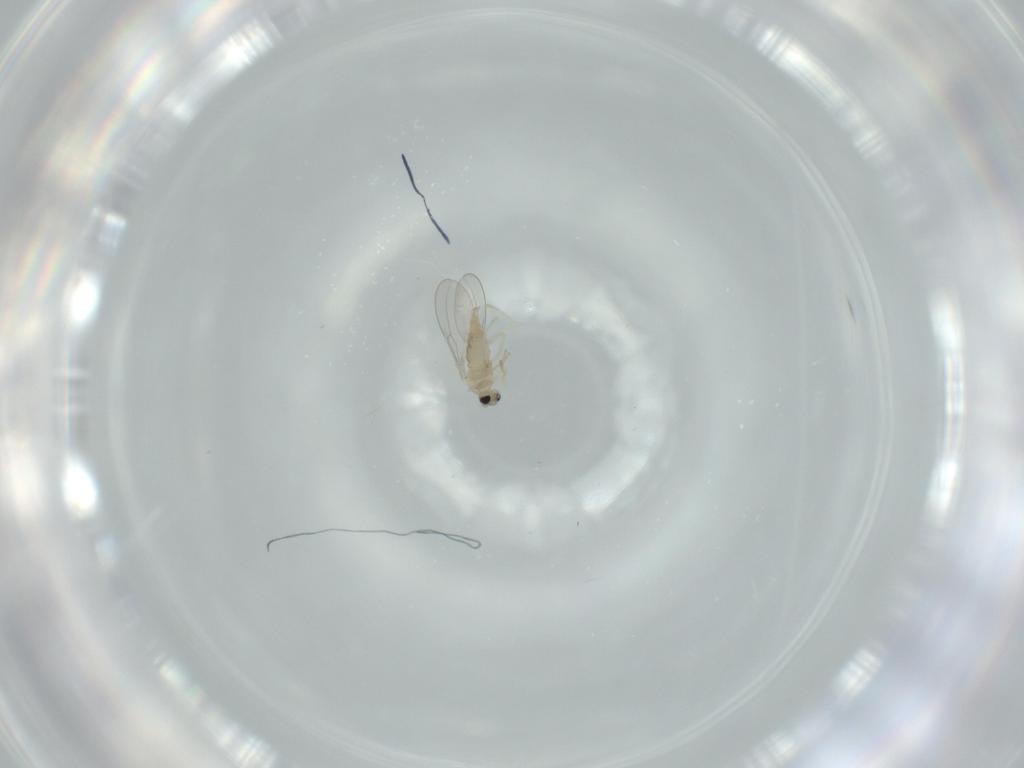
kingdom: Animalia
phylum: Arthropoda
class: Insecta
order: Diptera
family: Cecidomyiidae
